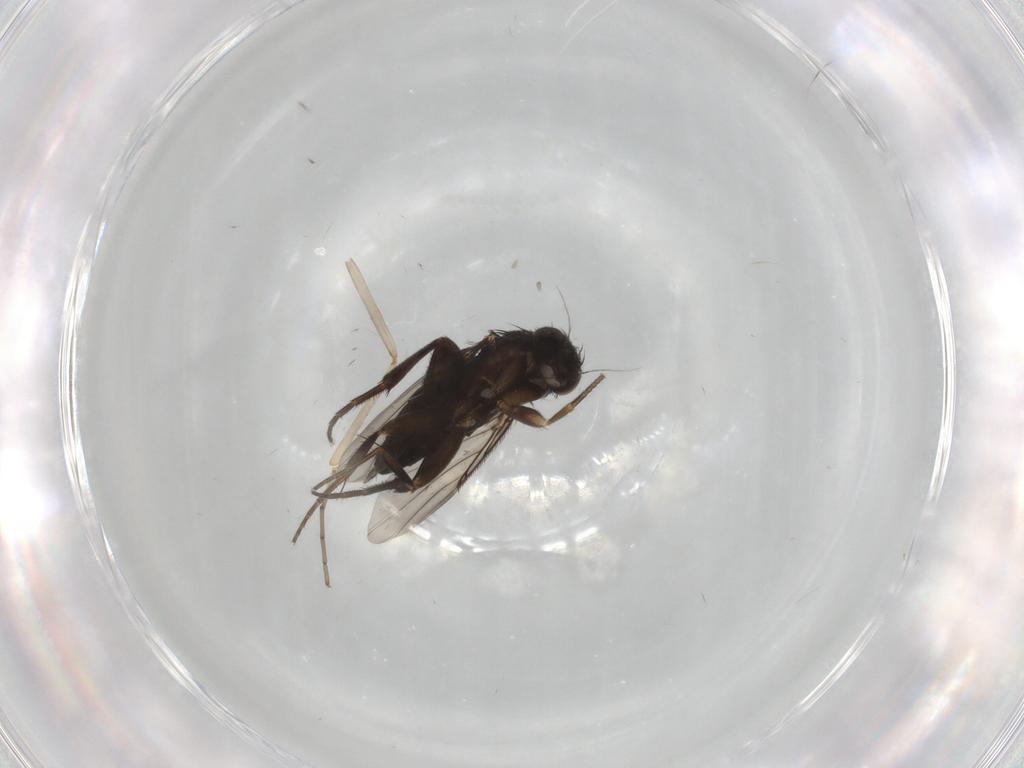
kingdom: Animalia
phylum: Arthropoda
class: Insecta
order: Diptera
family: Phoridae
